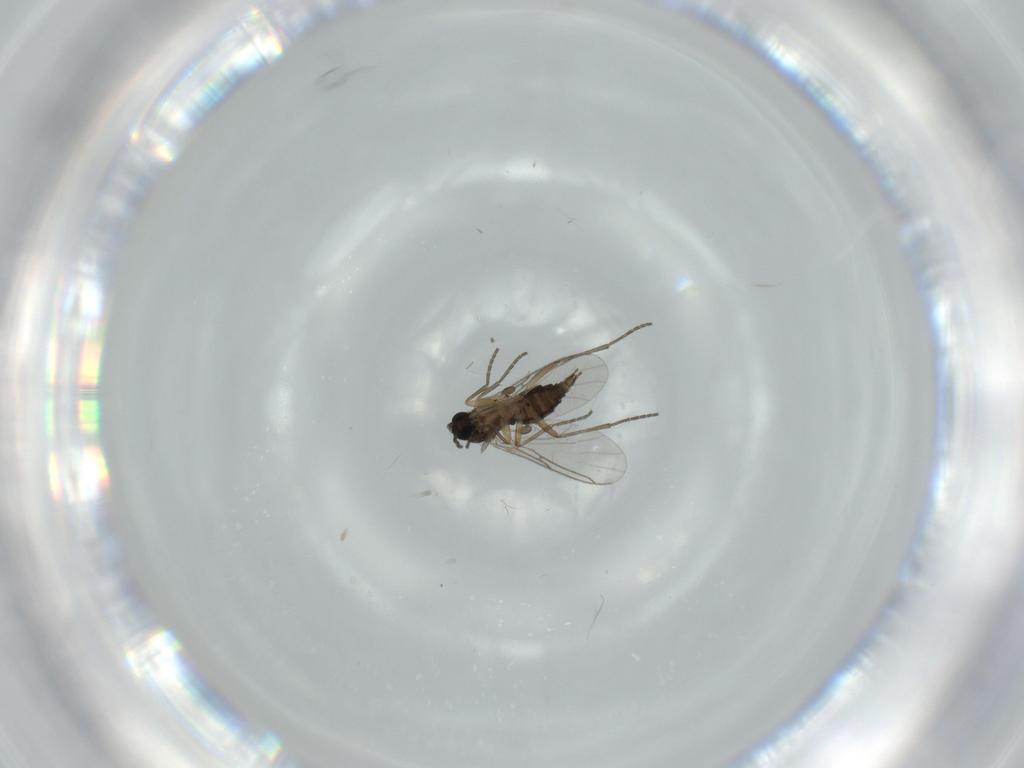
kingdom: Animalia
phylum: Arthropoda
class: Insecta
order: Diptera
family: Sciaridae
